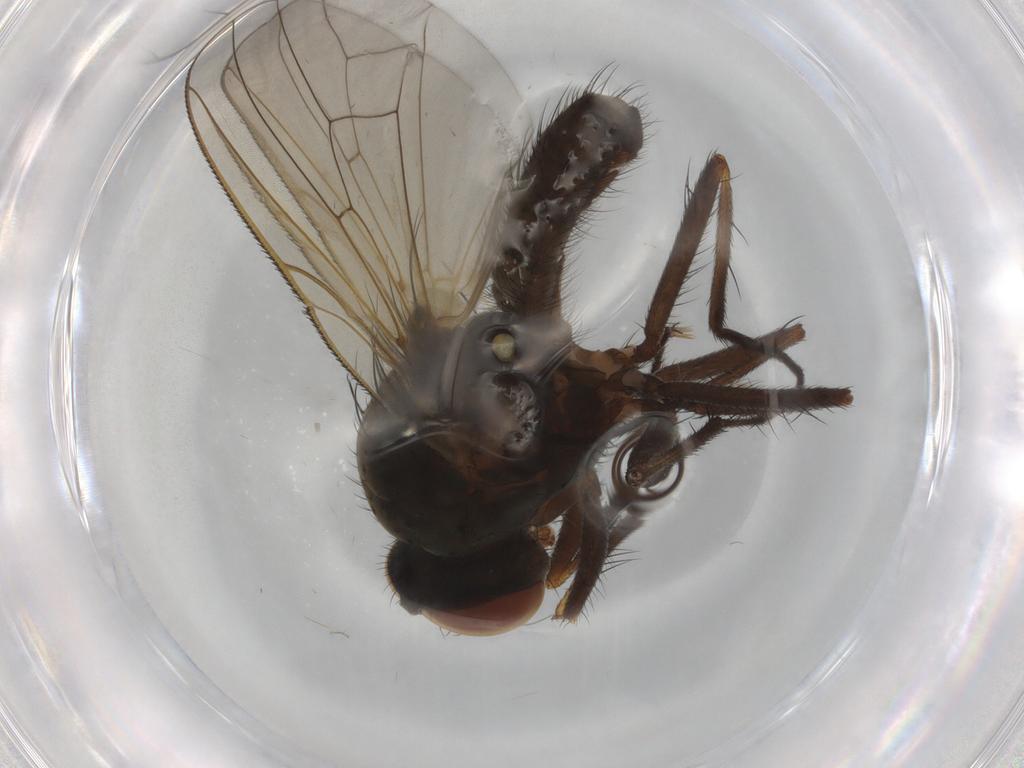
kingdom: Animalia
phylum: Arthropoda
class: Insecta
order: Diptera
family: Anthomyiidae
